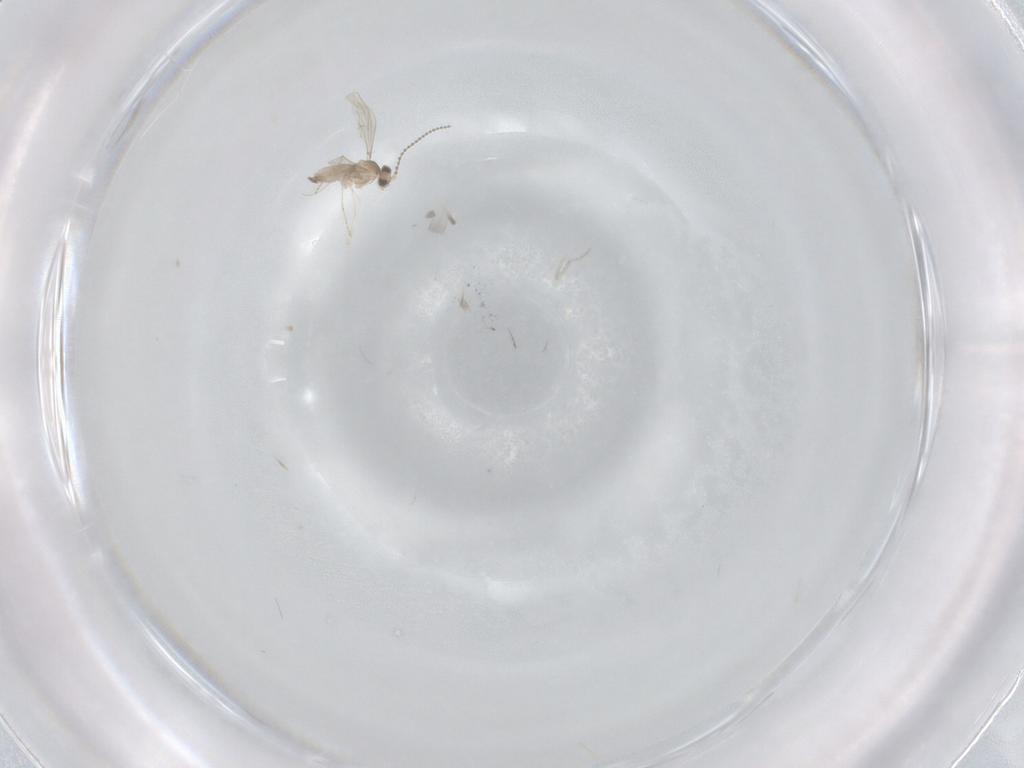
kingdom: Animalia
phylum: Arthropoda
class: Insecta
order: Diptera
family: Cecidomyiidae
